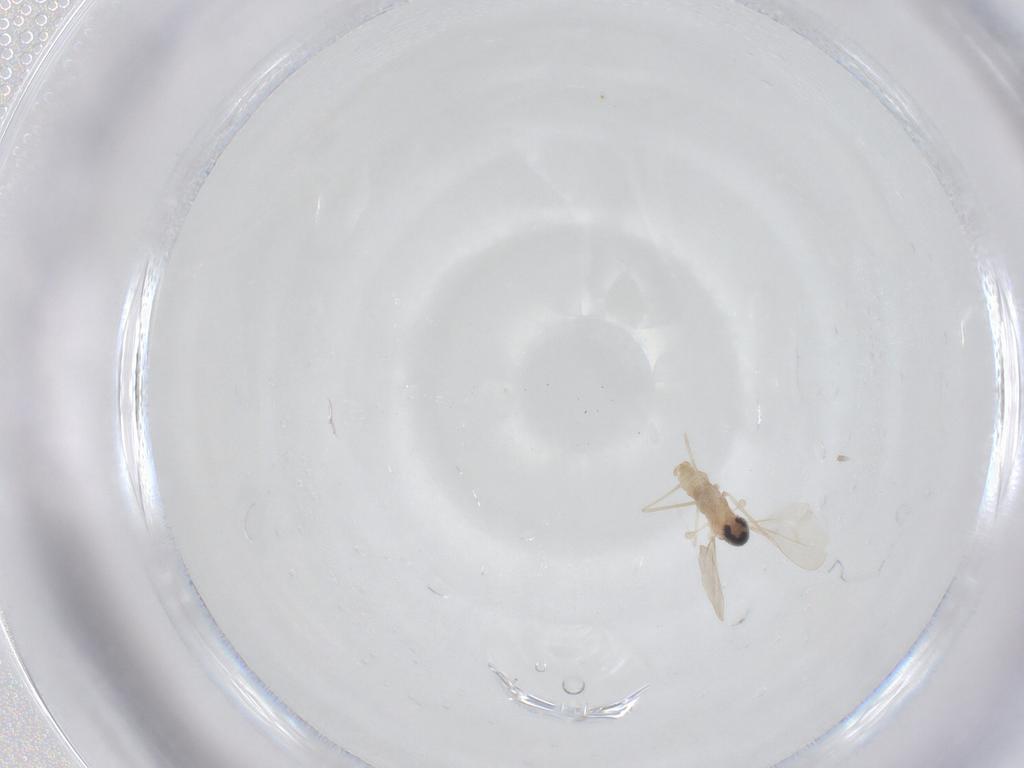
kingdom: Animalia
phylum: Arthropoda
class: Insecta
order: Diptera
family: Cecidomyiidae
